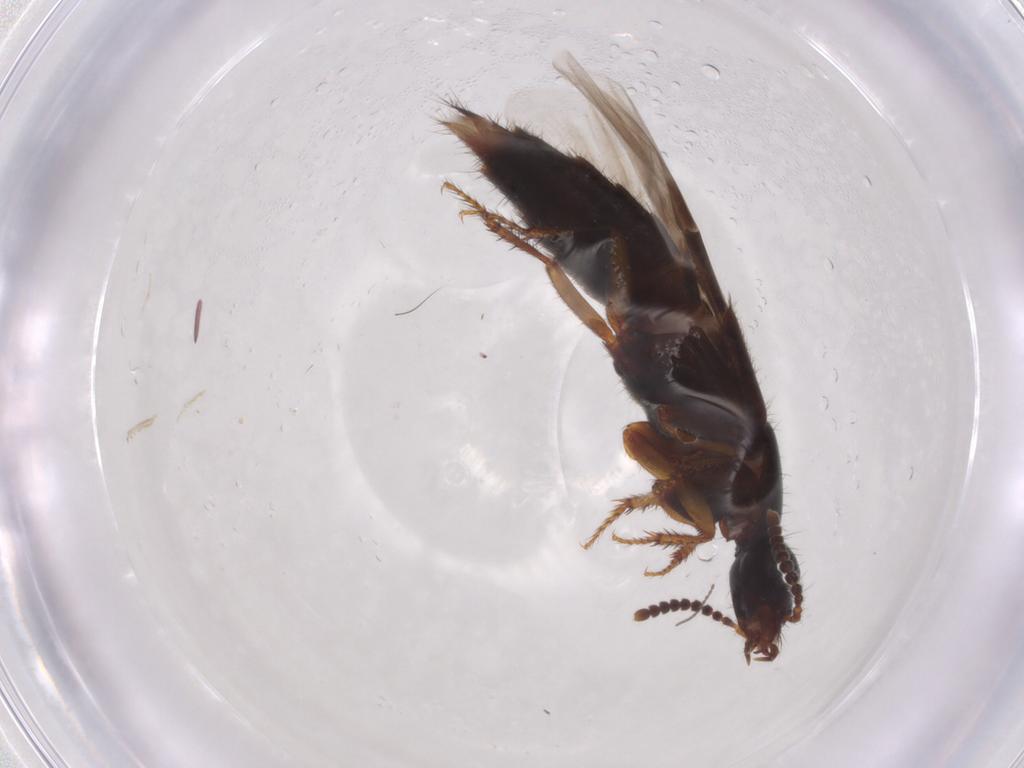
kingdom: Animalia
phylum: Arthropoda
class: Insecta
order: Coleoptera
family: Staphylinidae
